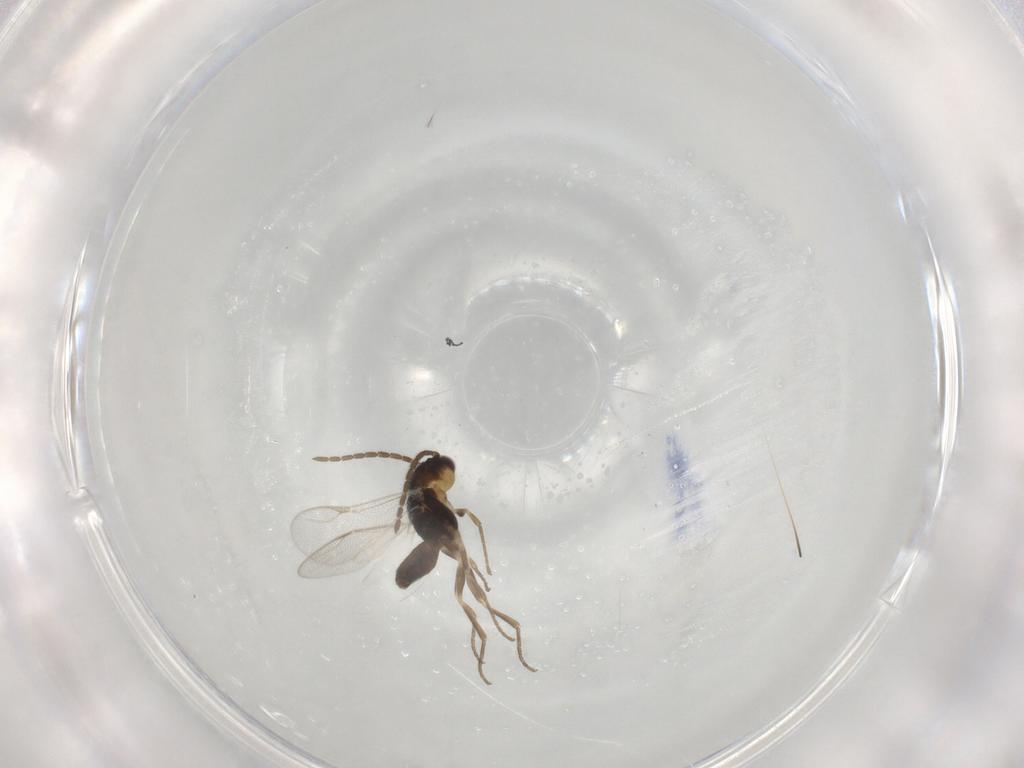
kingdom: Animalia
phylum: Arthropoda
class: Insecta
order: Hymenoptera
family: Dryinidae
